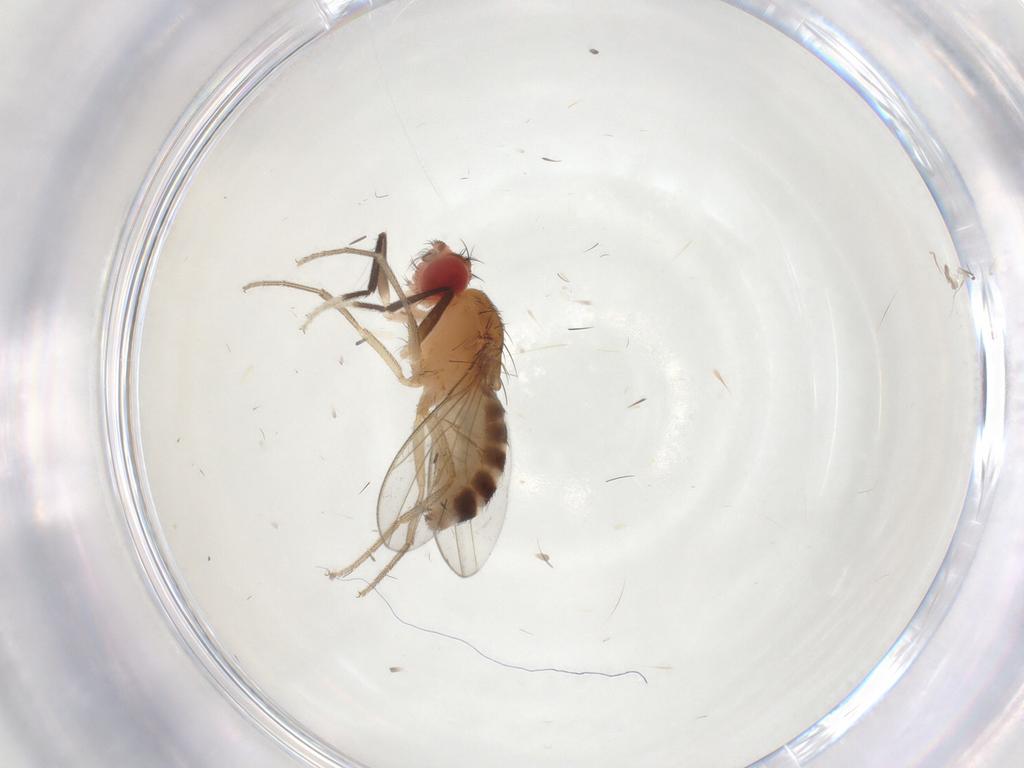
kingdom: Animalia
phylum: Arthropoda
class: Insecta
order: Diptera
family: Drosophilidae
